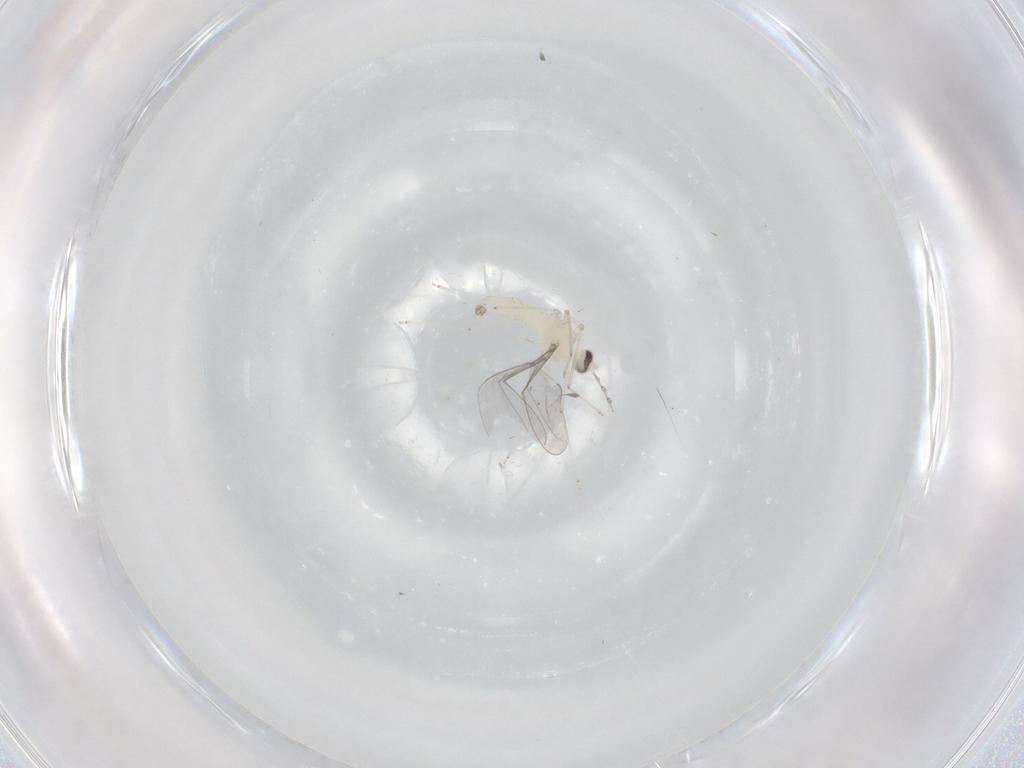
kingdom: Animalia
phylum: Arthropoda
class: Insecta
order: Diptera
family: Cecidomyiidae
